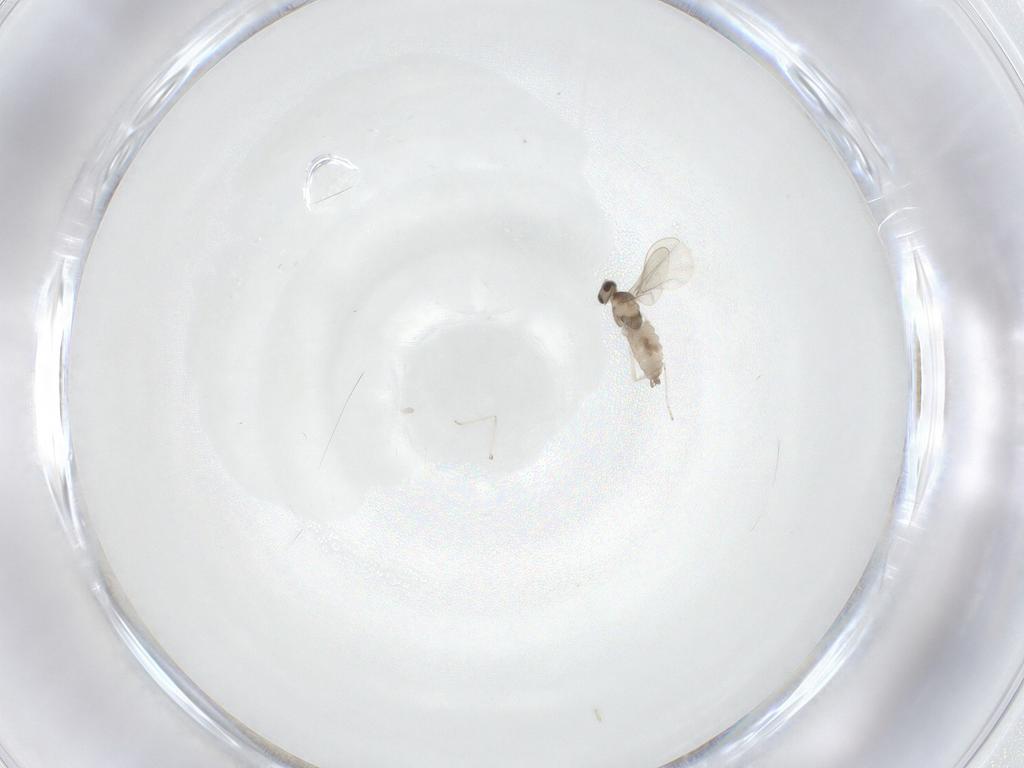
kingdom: Animalia
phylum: Arthropoda
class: Insecta
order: Diptera
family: Cecidomyiidae
